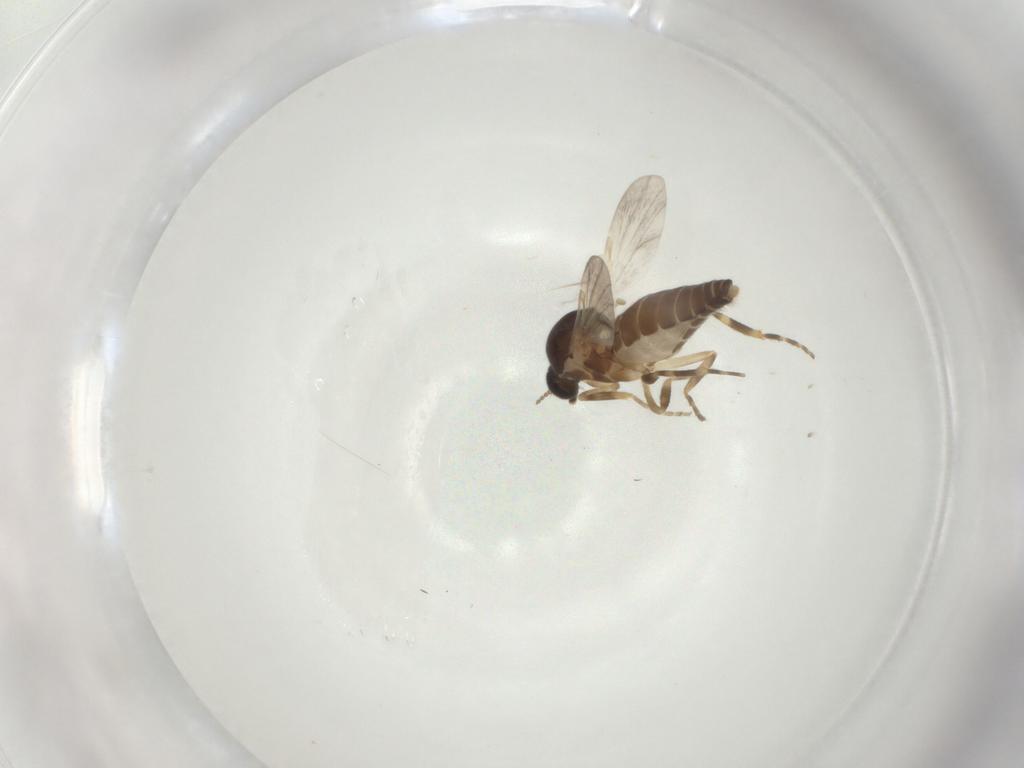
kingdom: Animalia
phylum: Arthropoda
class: Insecta
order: Diptera
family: Ceratopogonidae
